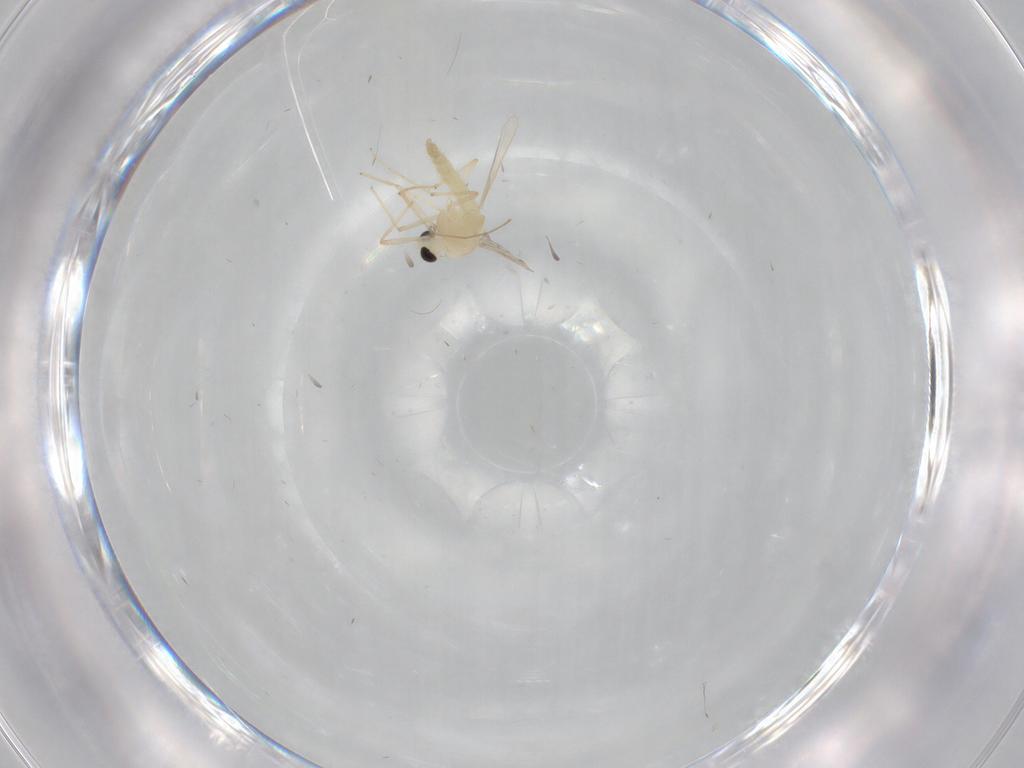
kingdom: Animalia
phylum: Arthropoda
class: Insecta
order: Diptera
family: Chironomidae
